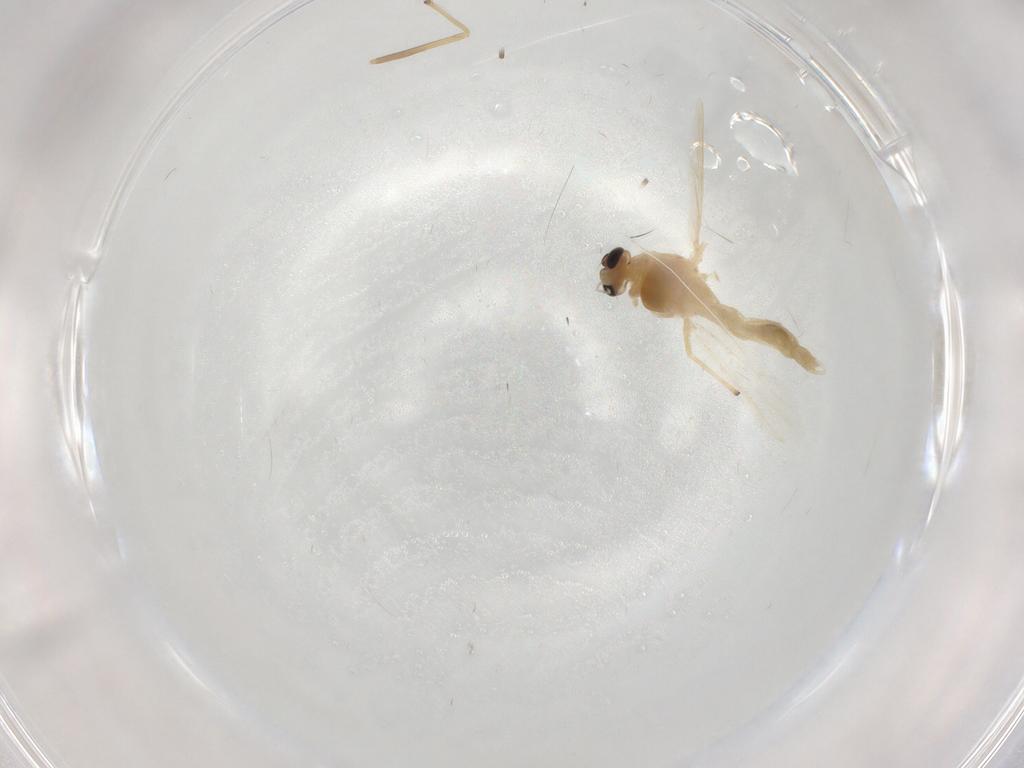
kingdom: Animalia
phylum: Arthropoda
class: Insecta
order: Diptera
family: Chironomidae
